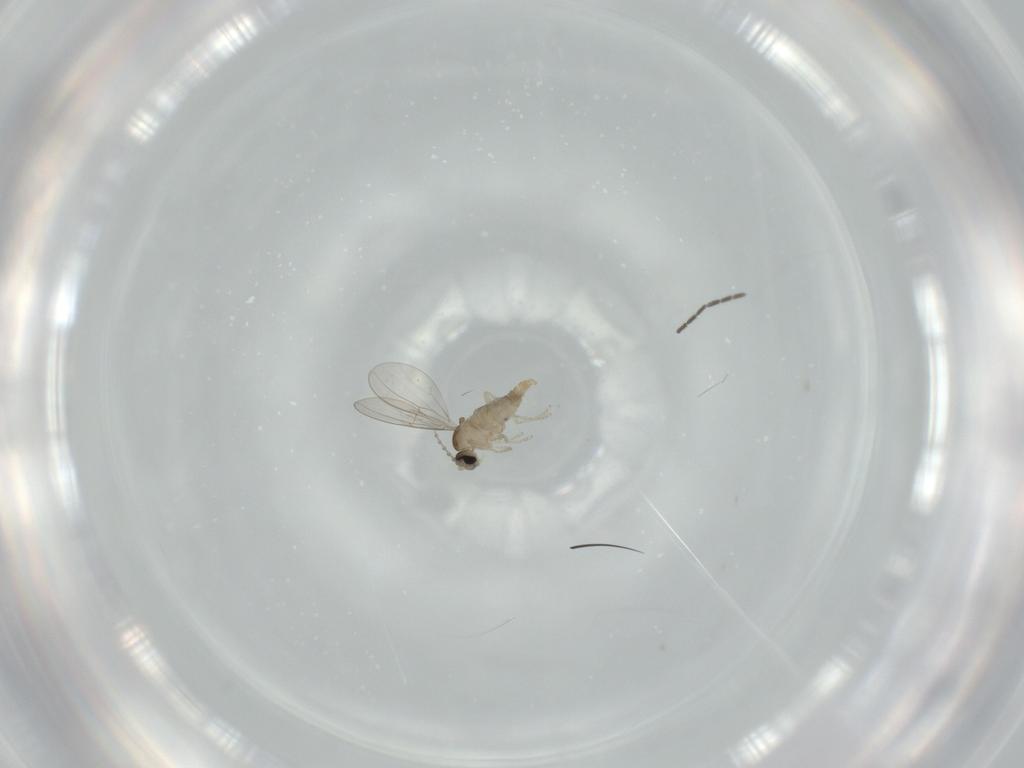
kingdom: Animalia
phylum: Arthropoda
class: Insecta
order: Diptera
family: Cecidomyiidae
